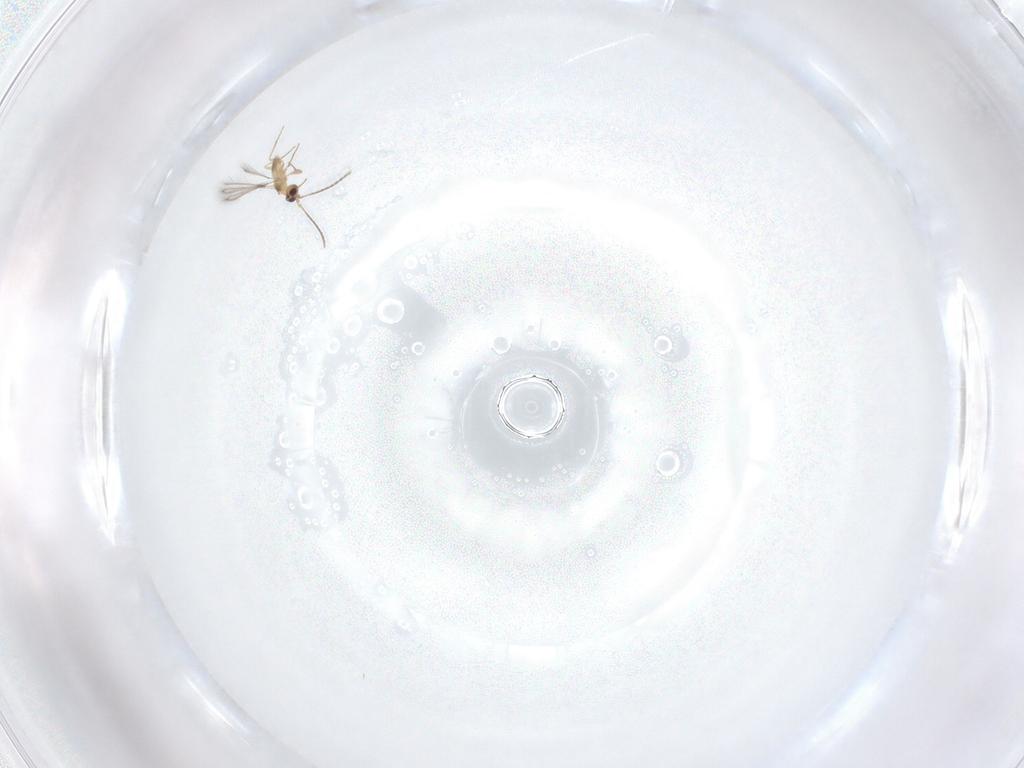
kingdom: Animalia
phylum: Arthropoda
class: Insecta
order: Hymenoptera
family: Mymaridae
